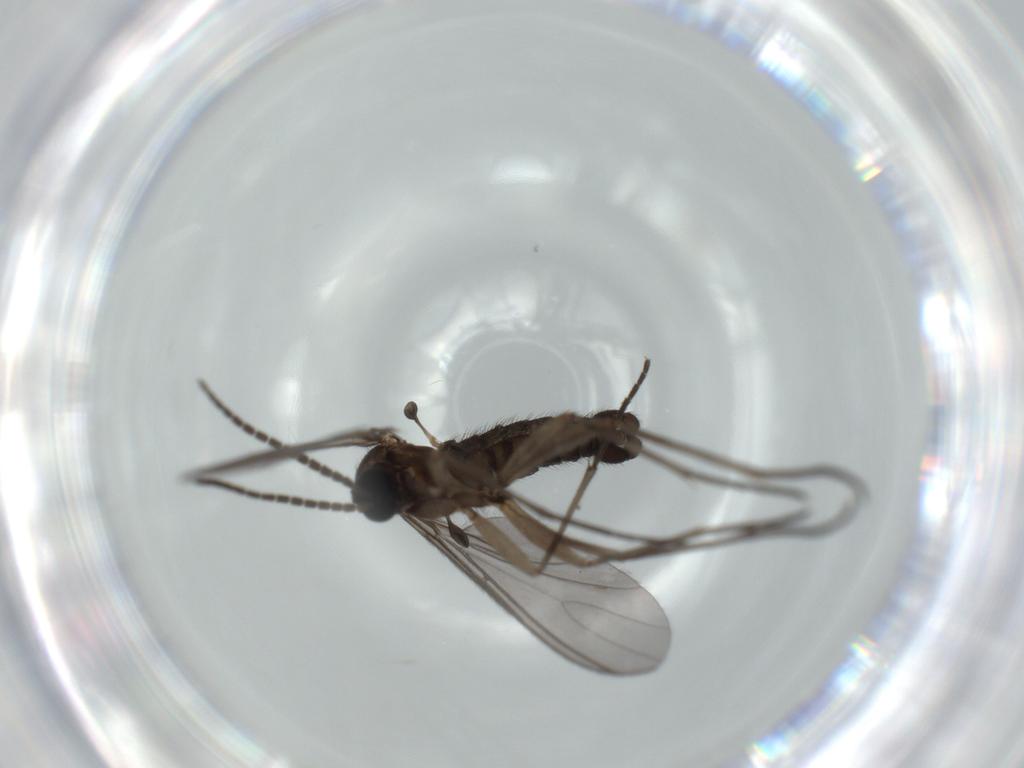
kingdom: Animalia
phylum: Arthropoda
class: Insecta
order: Diptera
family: Sciaridae
